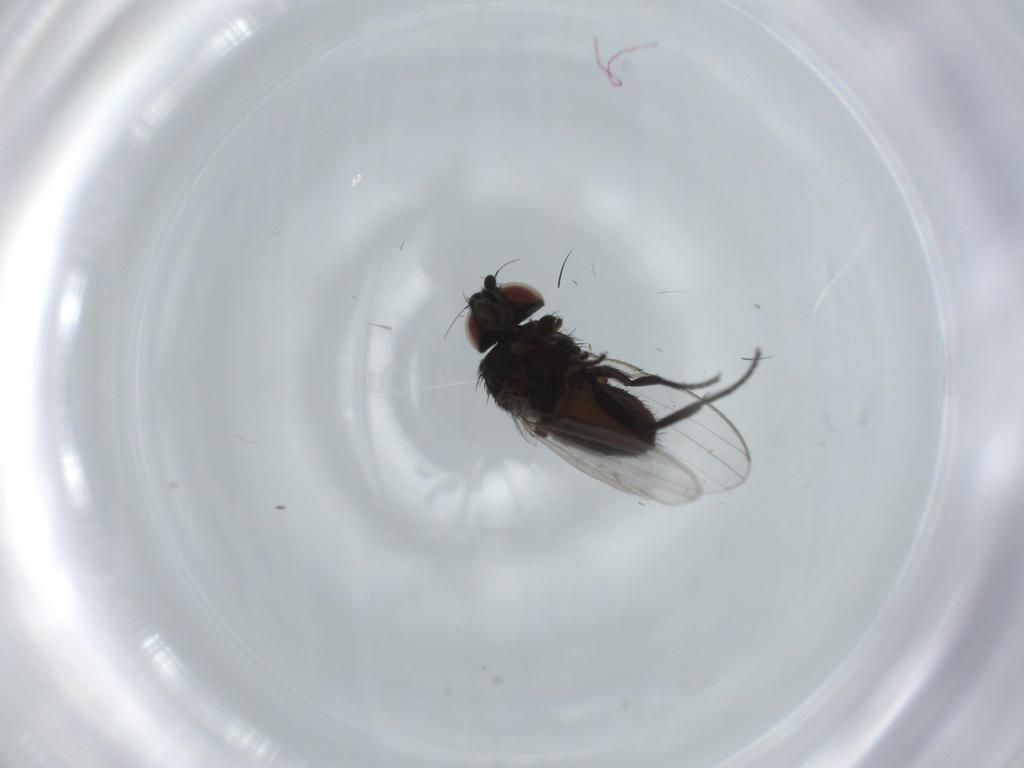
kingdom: Animalia
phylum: Arthropoda
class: Insecta
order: Diptera
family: Milichiidae
